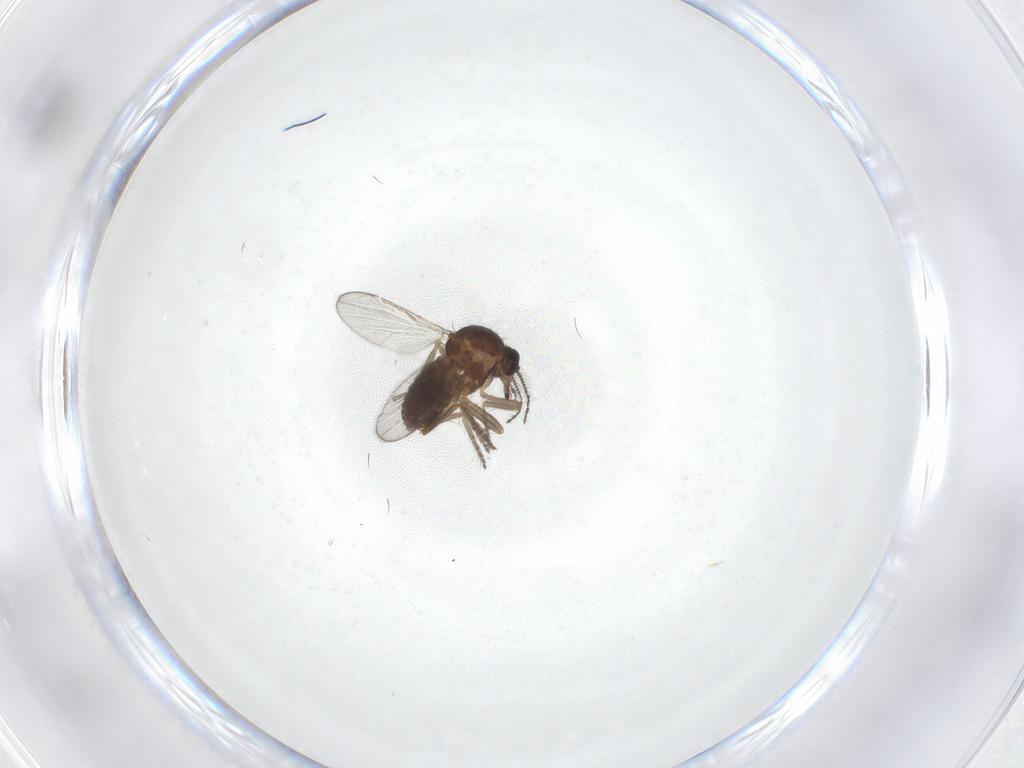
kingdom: Animalia
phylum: Arthropoda
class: Insecta
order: Diptera
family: Ceratopogonidae
